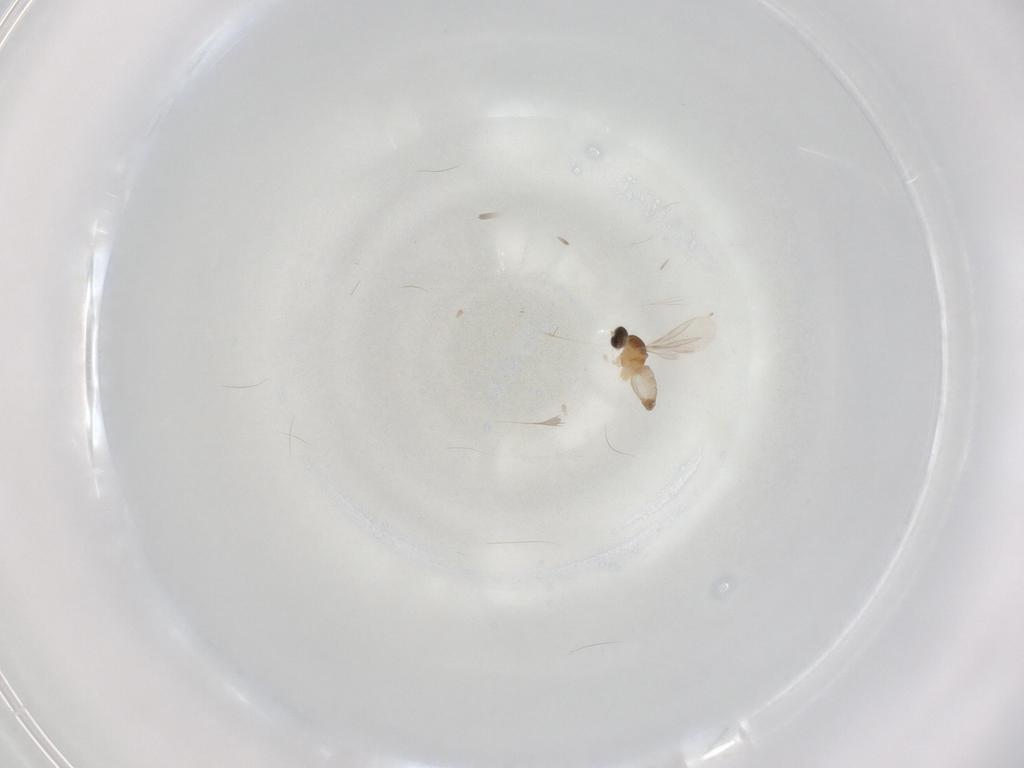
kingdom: Animalia
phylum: Arthropoda
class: Insecta
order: Diptera
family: Cecidomyiidae
